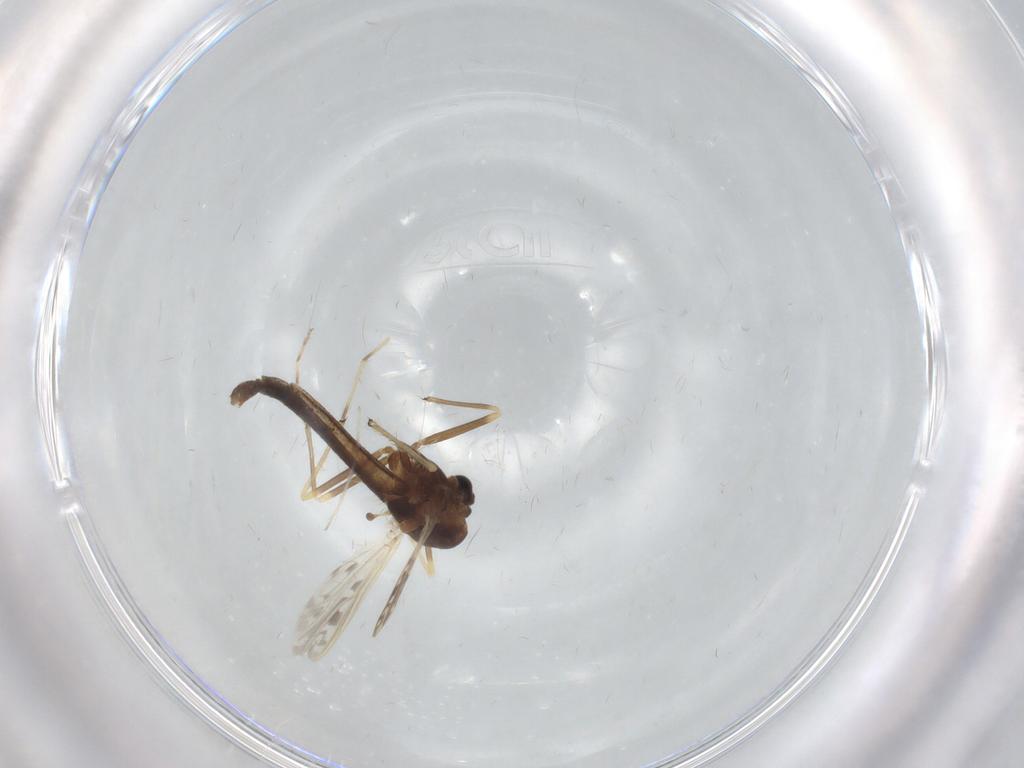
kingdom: Animalia
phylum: Arthropoda
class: Insecta
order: Diptera
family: Chironomidae
